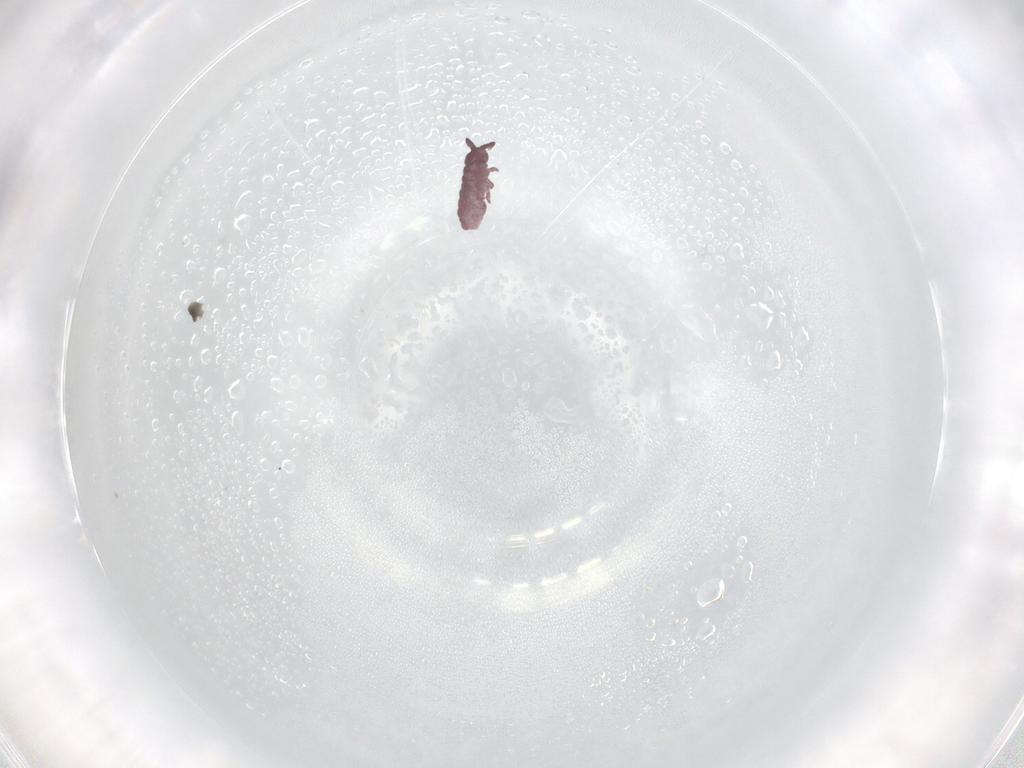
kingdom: Animalia
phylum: Arthropoda
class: Collembola
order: Poduromorpha
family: Hypogastruridae
